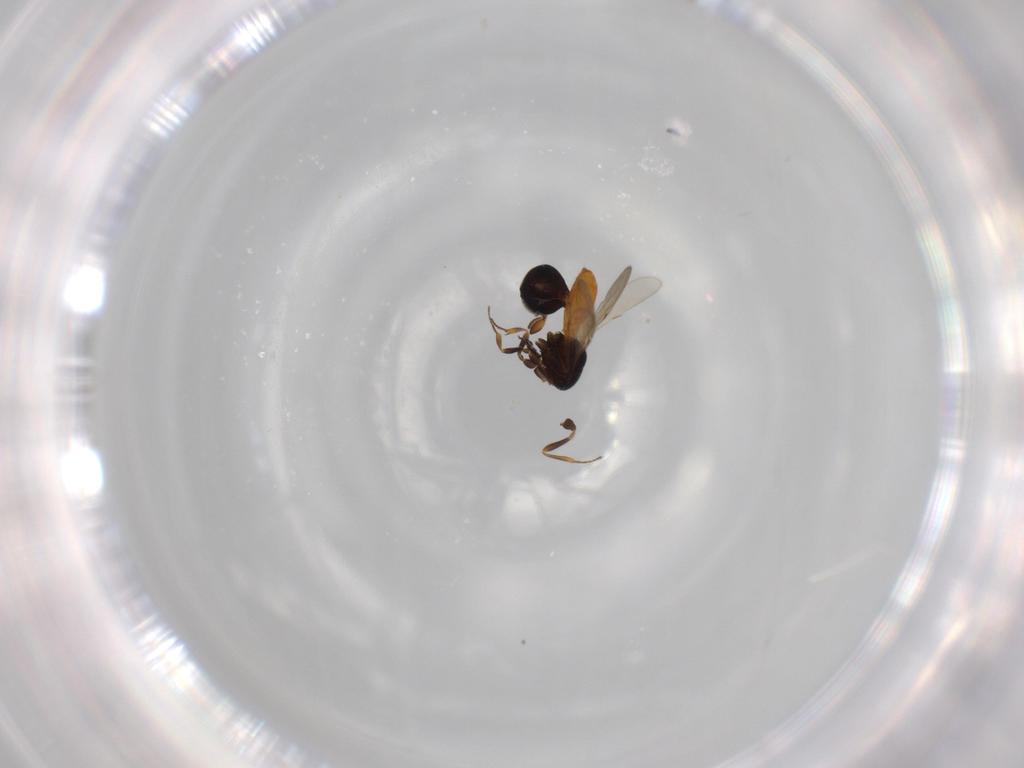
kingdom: Animalia
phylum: Arthropoda
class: Insecta
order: Hymenoptera
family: Scelionidae
